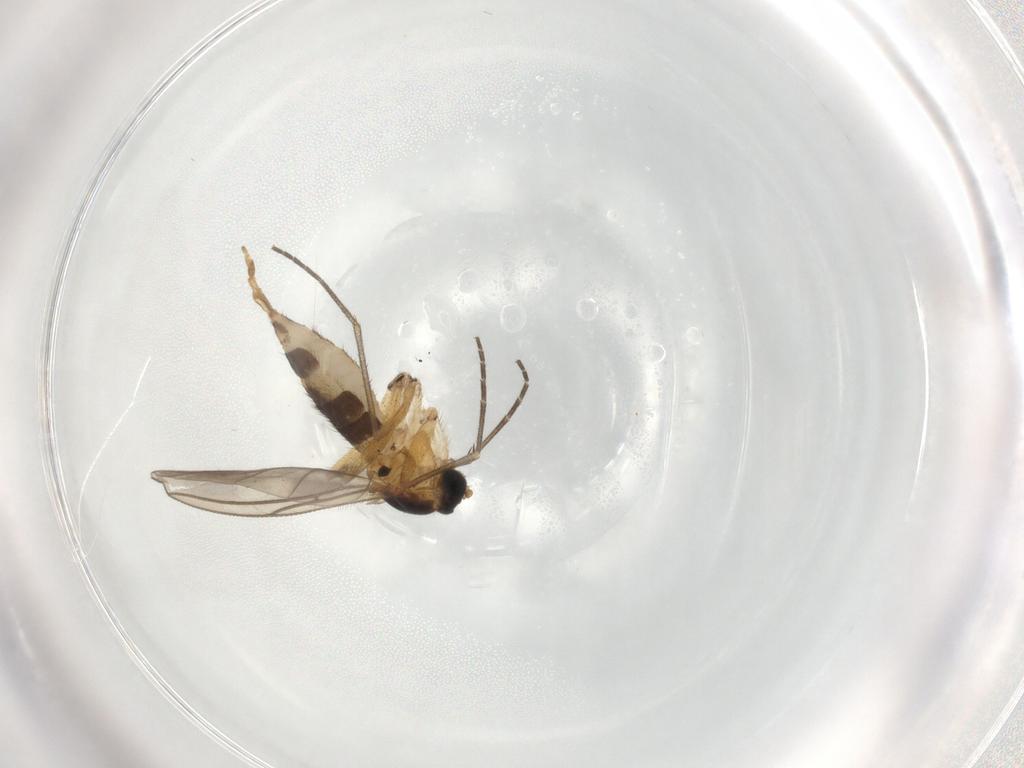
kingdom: Animalia
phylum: Arthropoda
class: Insecta
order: Diptera
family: Sciaridae
